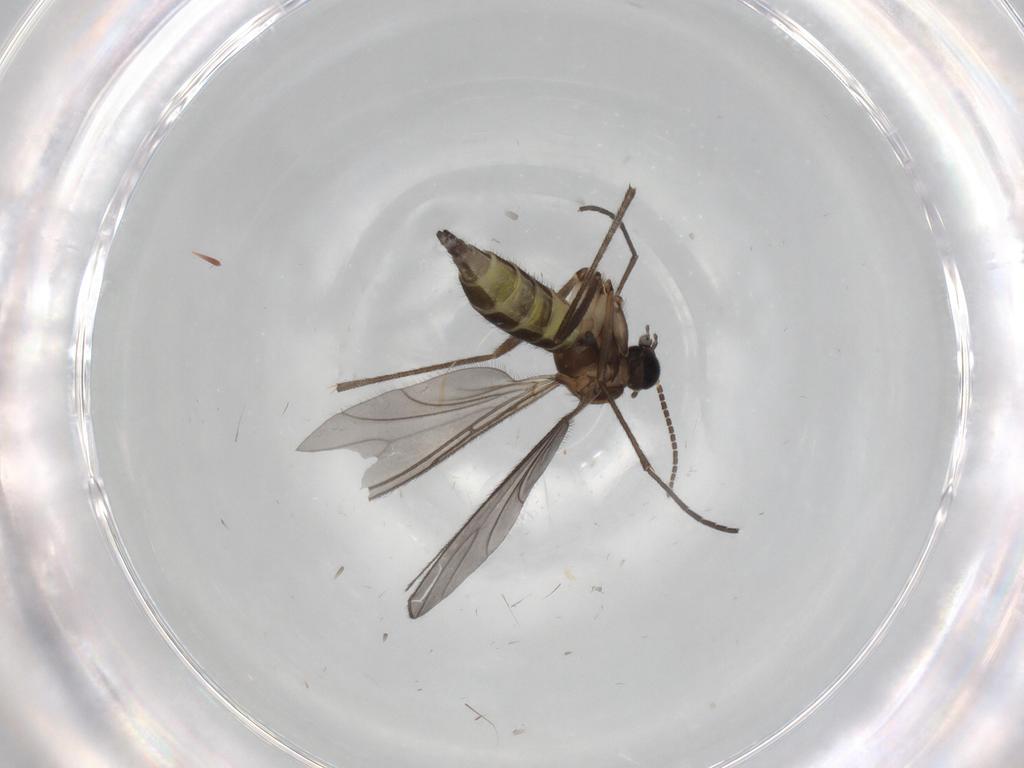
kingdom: Animalia
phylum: Arthropoda
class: Insecta
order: Diptera
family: Sciaridae
